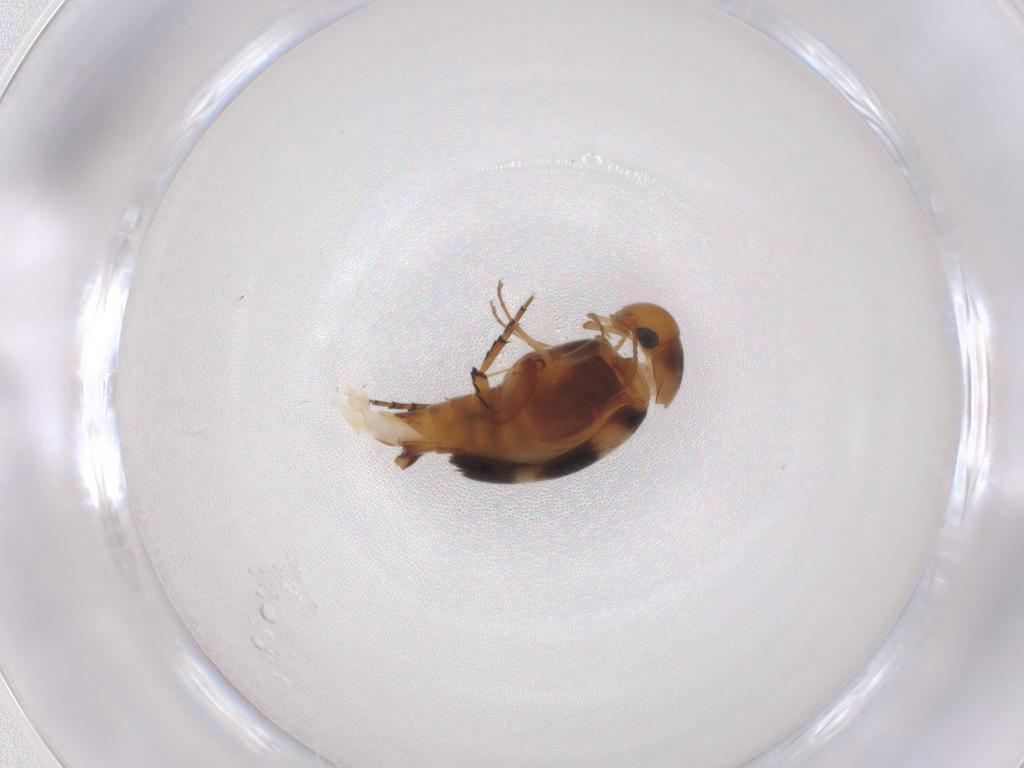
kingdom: Animalia
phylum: Arthropoda
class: Insecta
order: Coleoptera
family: Mordellidae
